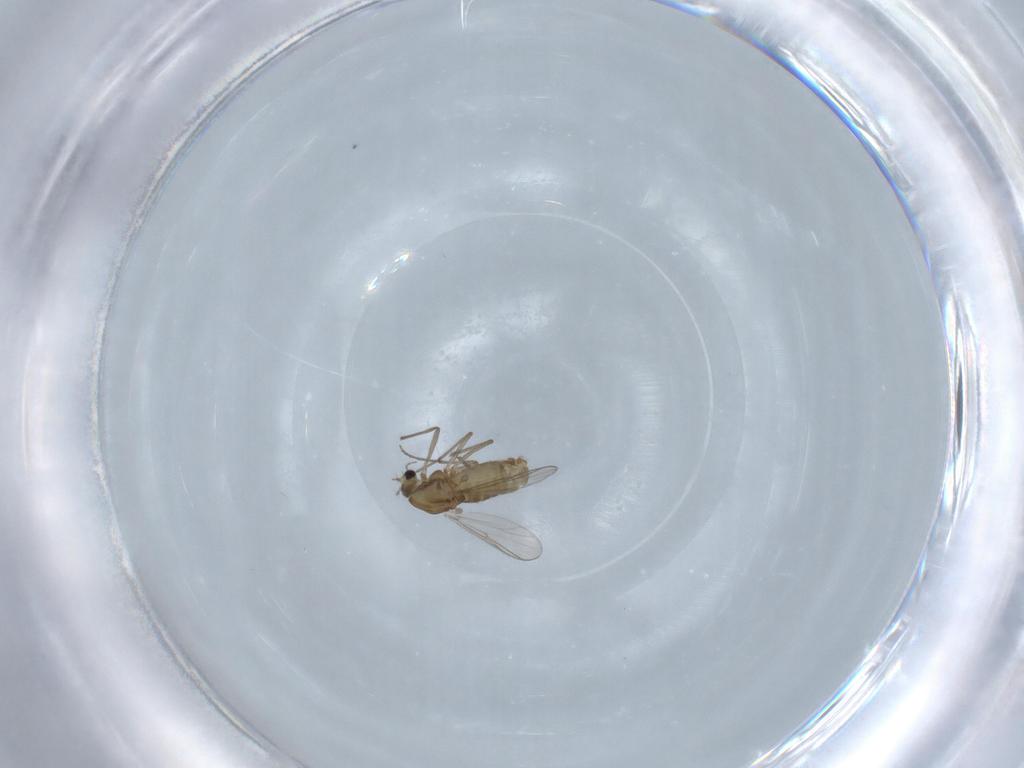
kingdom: Animalia
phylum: Arthropoda
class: Insecta
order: Diptera
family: Chironomidae
